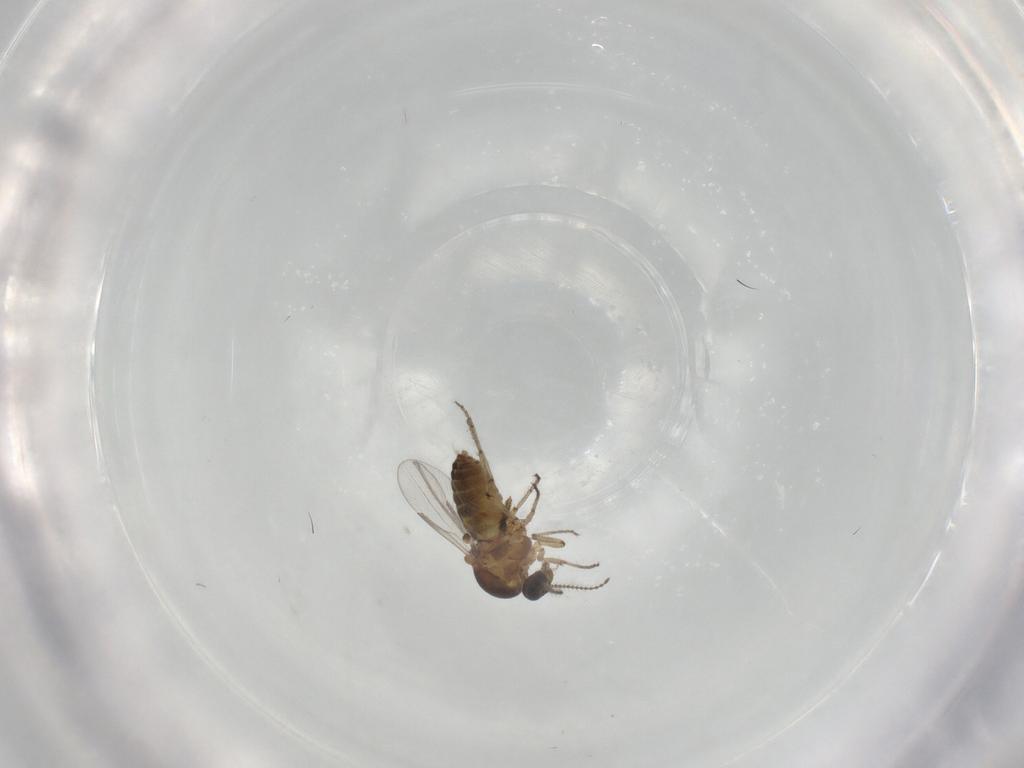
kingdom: Animalia
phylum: Arthropoda
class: Insecta
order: Diptera
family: Ceratopogonidae
